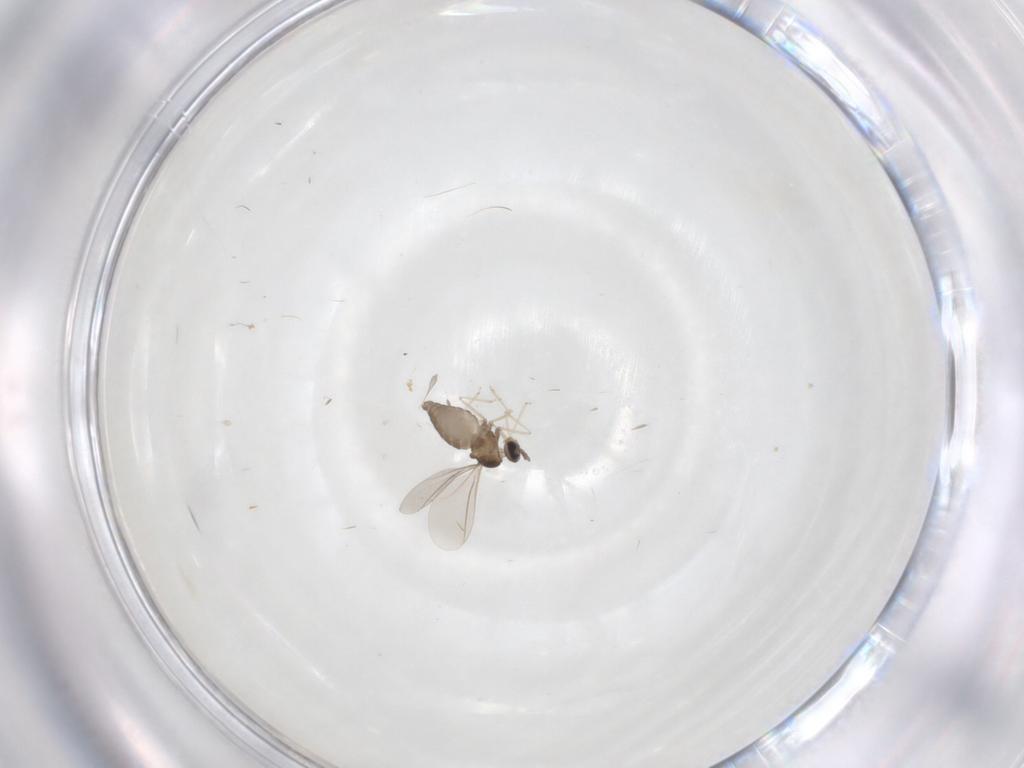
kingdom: Animalia
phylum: Arthropoda
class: Insecta
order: Diptera
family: Cecidomyiidae
